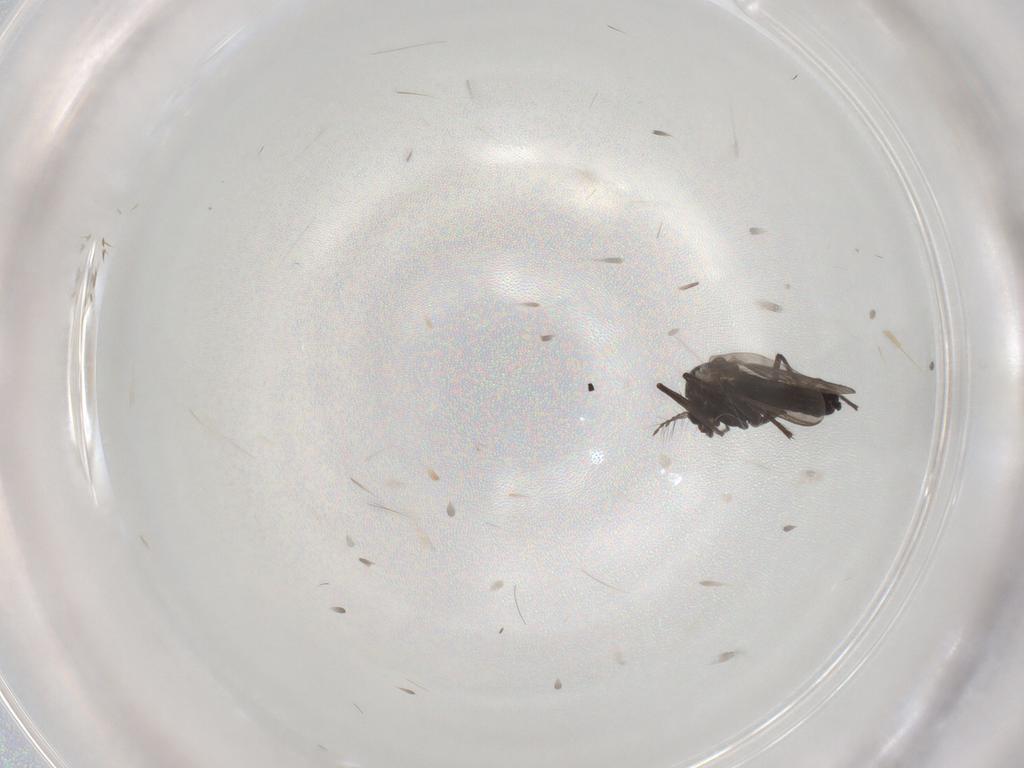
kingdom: Animalia
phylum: Arthropoda
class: Insecta
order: Diptera
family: Chironomidae
